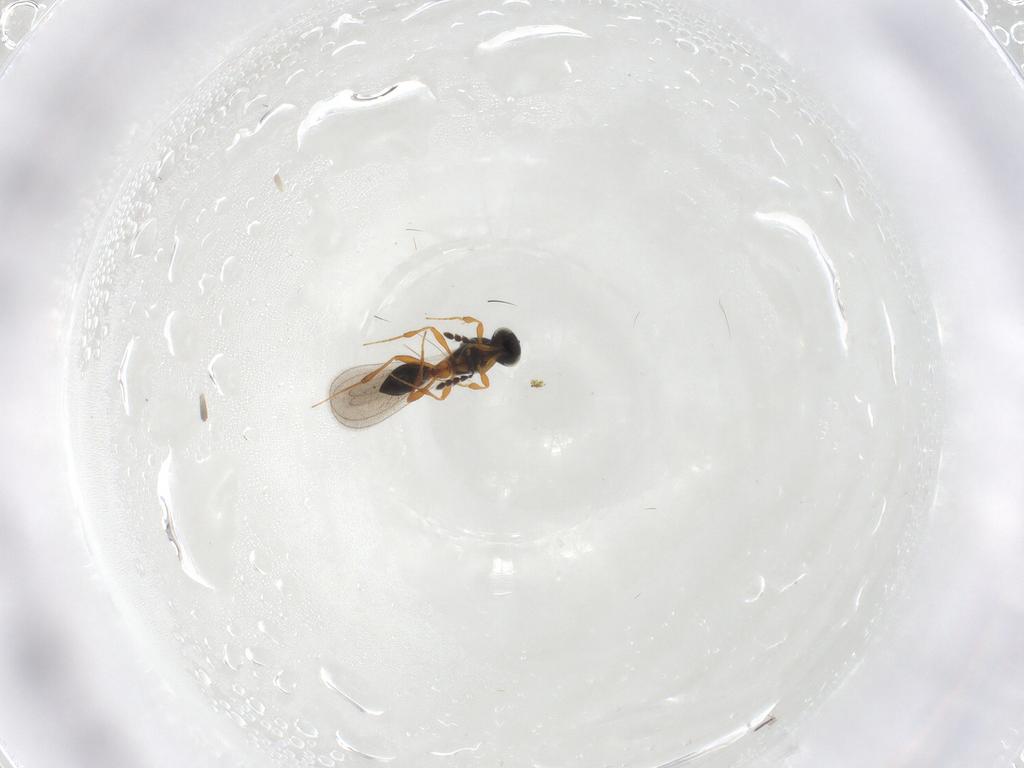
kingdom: Animalia
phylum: Arthropoda
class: Insecta
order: Hymenoptera
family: Platygastridae
